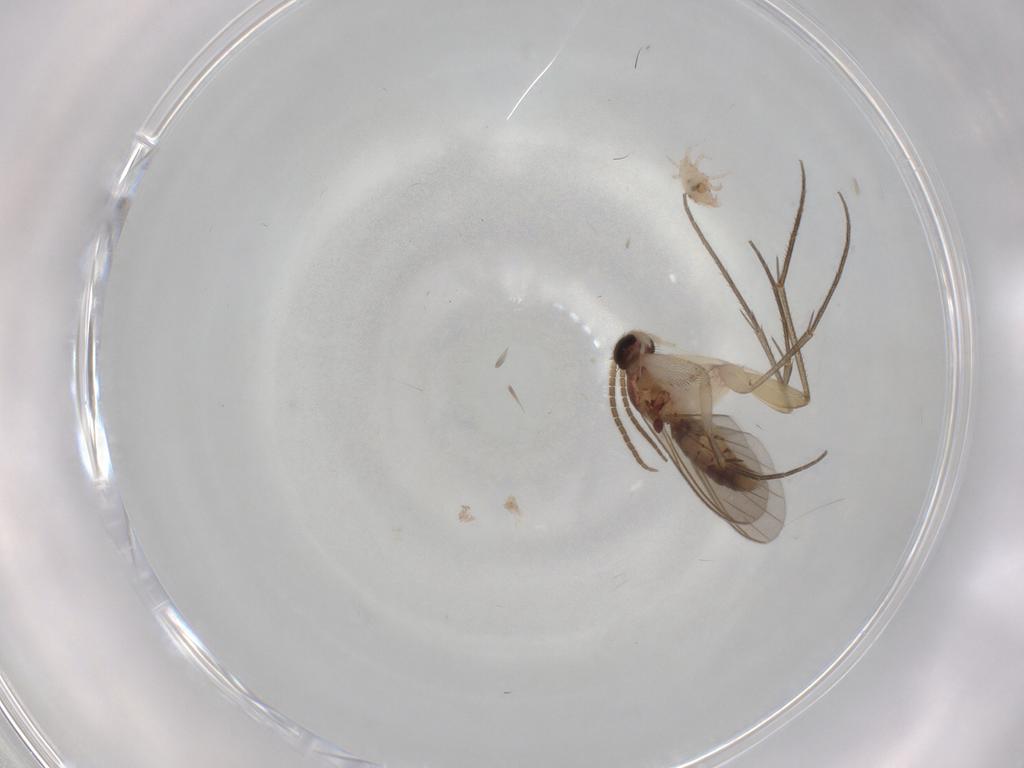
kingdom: Animalia
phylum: Arthropoda
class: Insecta
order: Diptera
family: Mycetophilidae
